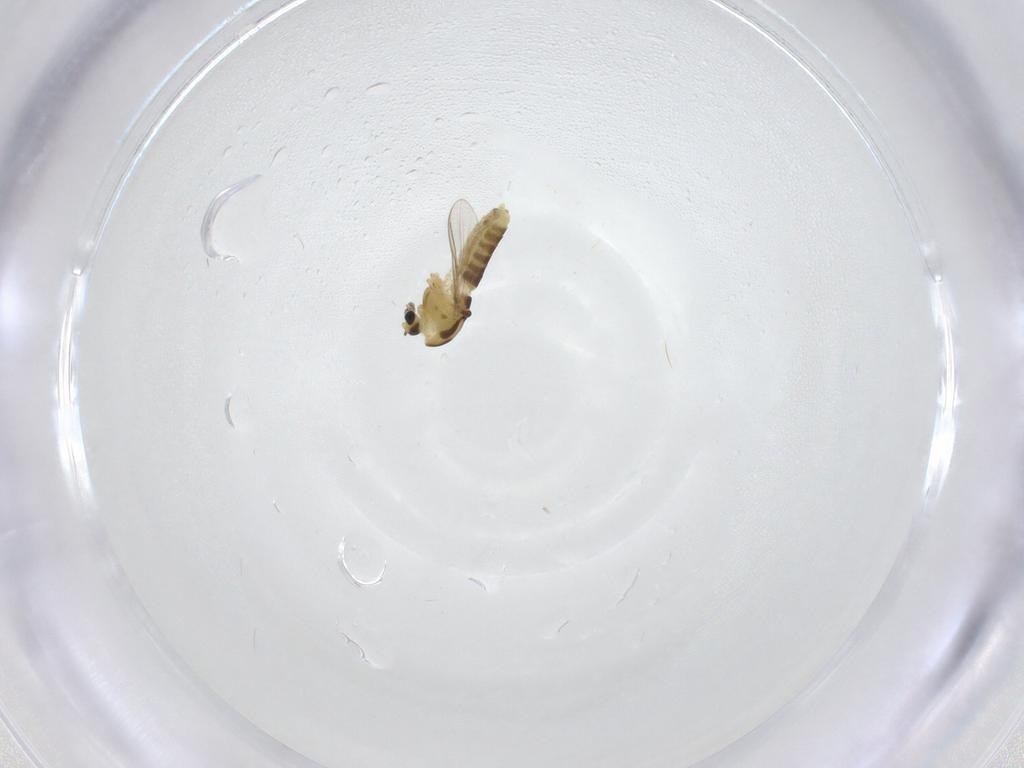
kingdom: Animalia
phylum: Arthropoda
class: Insecta
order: Diptera
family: Chironomidae
